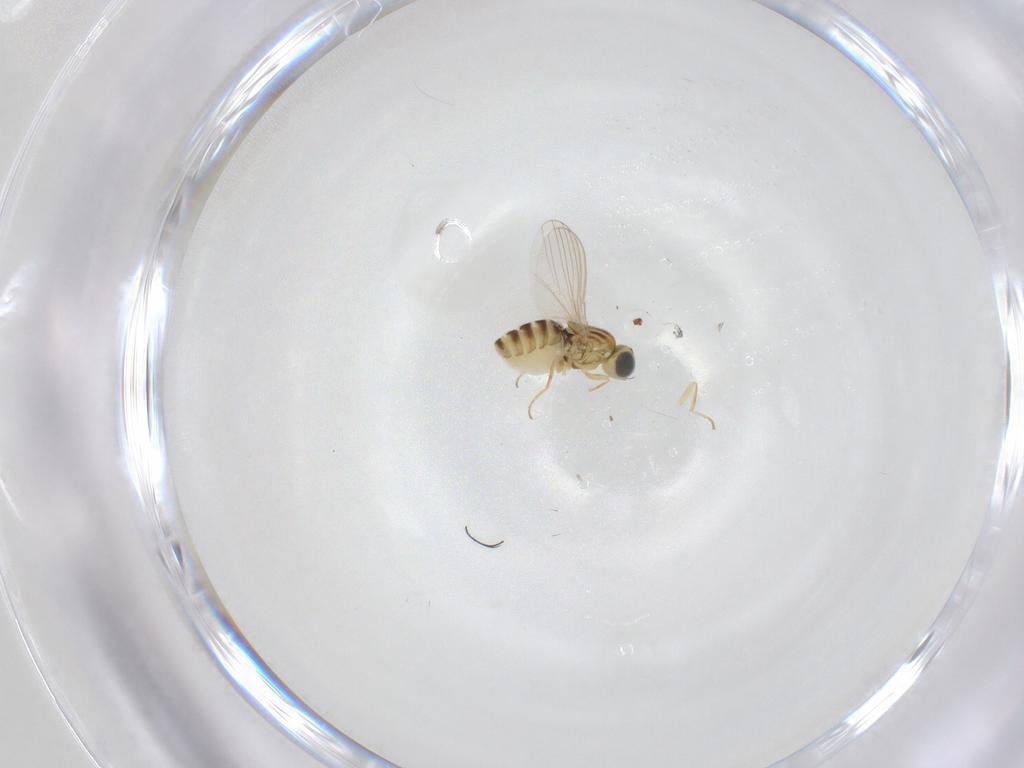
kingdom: Animalia
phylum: Arthropoda
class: Insecta
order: Diptera
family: Chyromyidae
